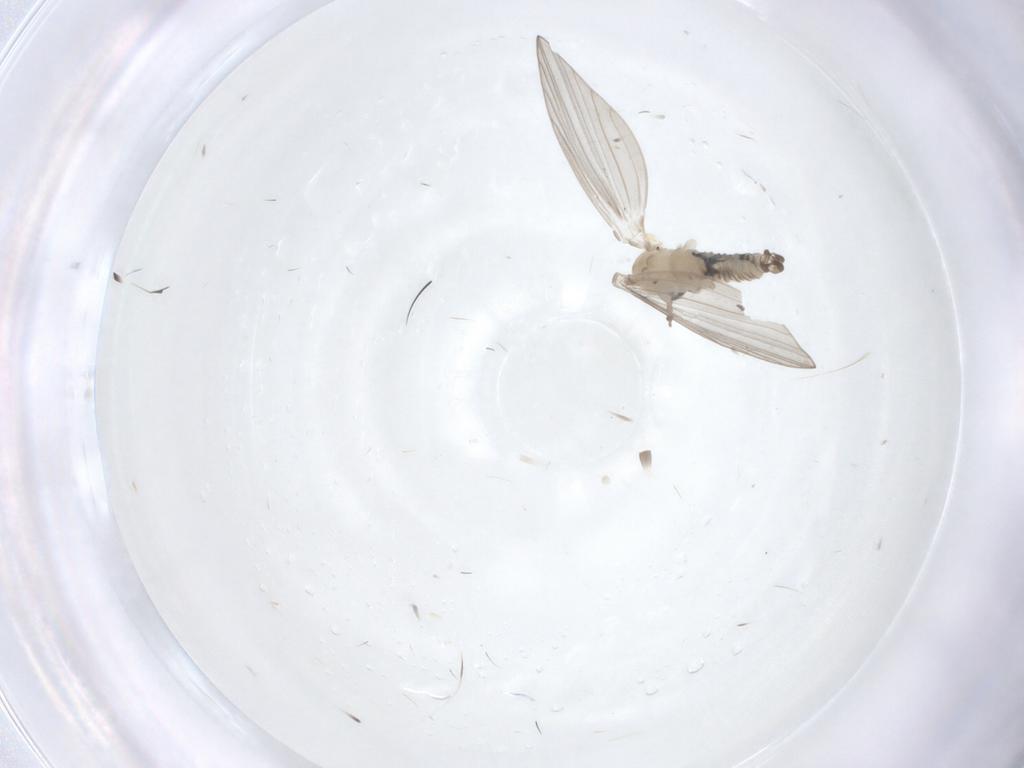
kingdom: Animalia
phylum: Arthropoda
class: Insecta
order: Diptera
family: Psychodidae
